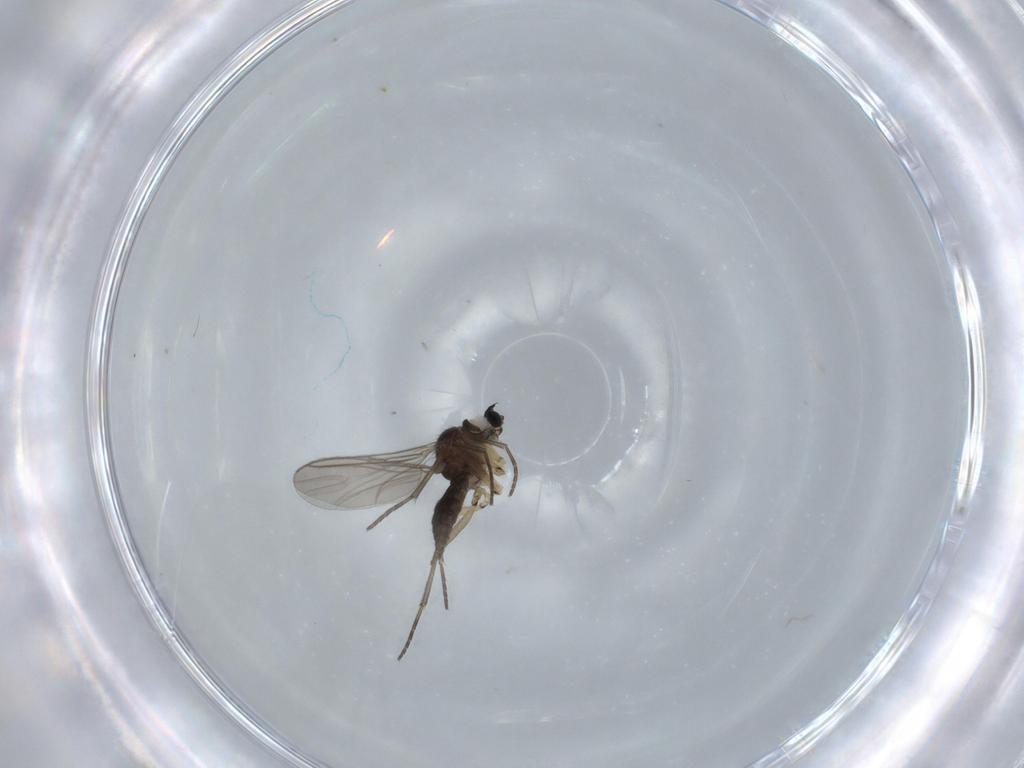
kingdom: Animalia
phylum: Arthropoda
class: Insecta
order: Diptera
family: Sciaridae
